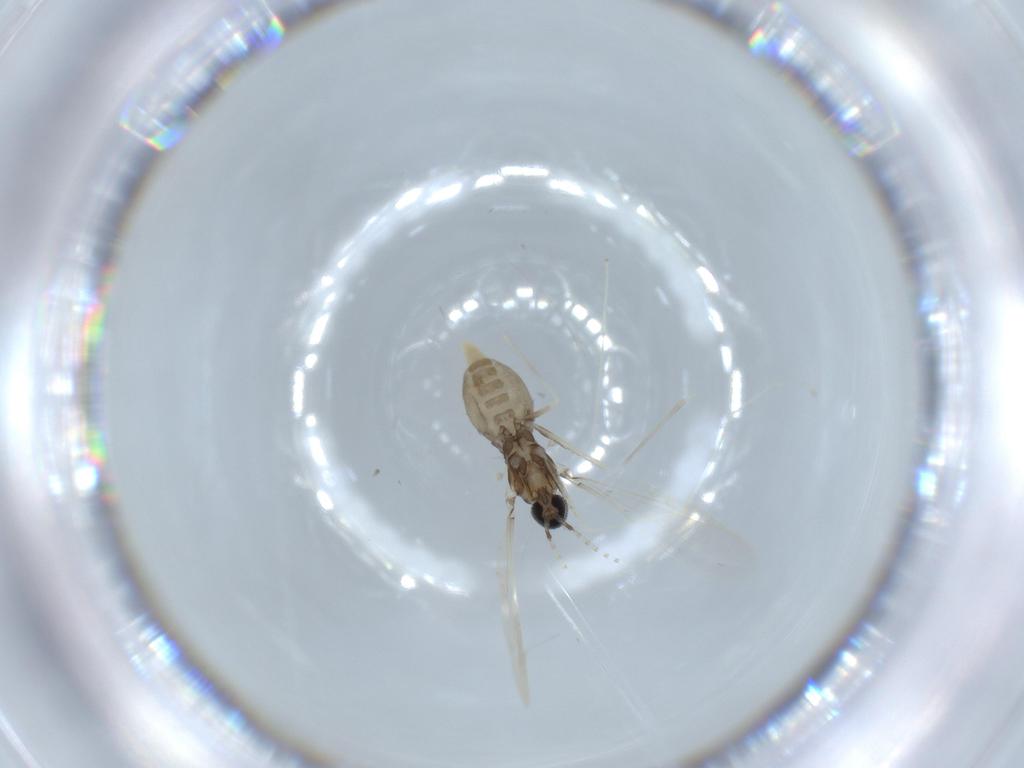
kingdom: Animalia
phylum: Arthropoda
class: Insecta
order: Diptera
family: Cecidomyiidae
